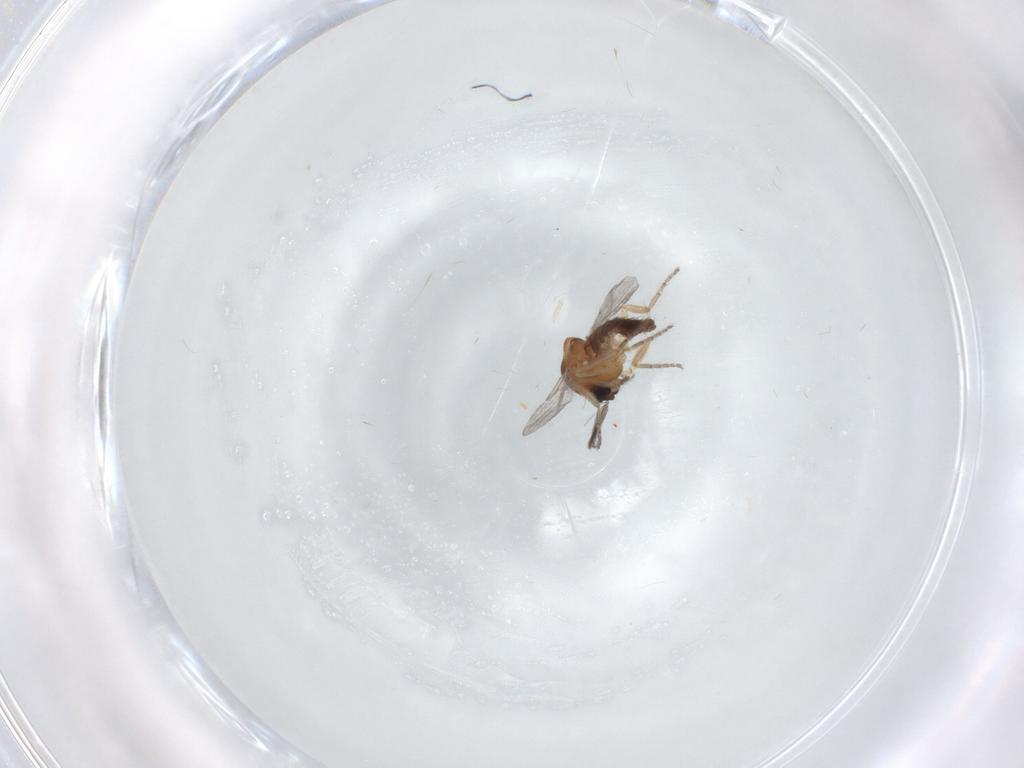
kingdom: Animalia
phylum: Arthropoda
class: Insecta
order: Diptera
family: Ceratopogonidae
